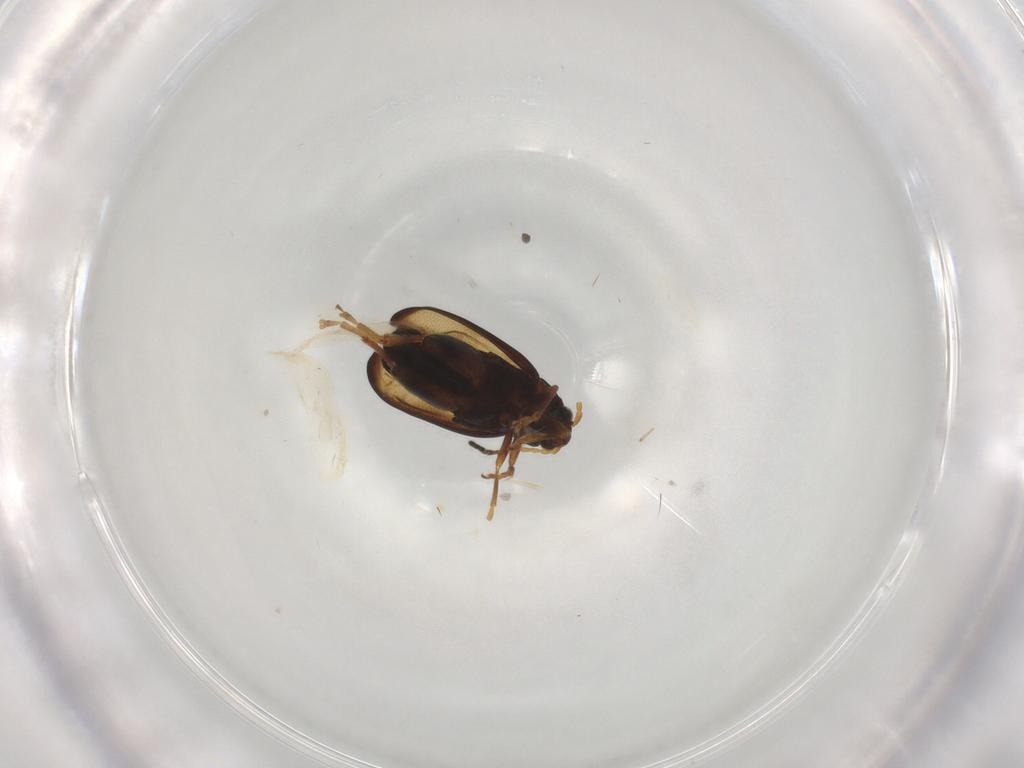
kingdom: Animalia
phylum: Arthropoda
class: Insecta
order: Coleoptera
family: Chrysomelidae
